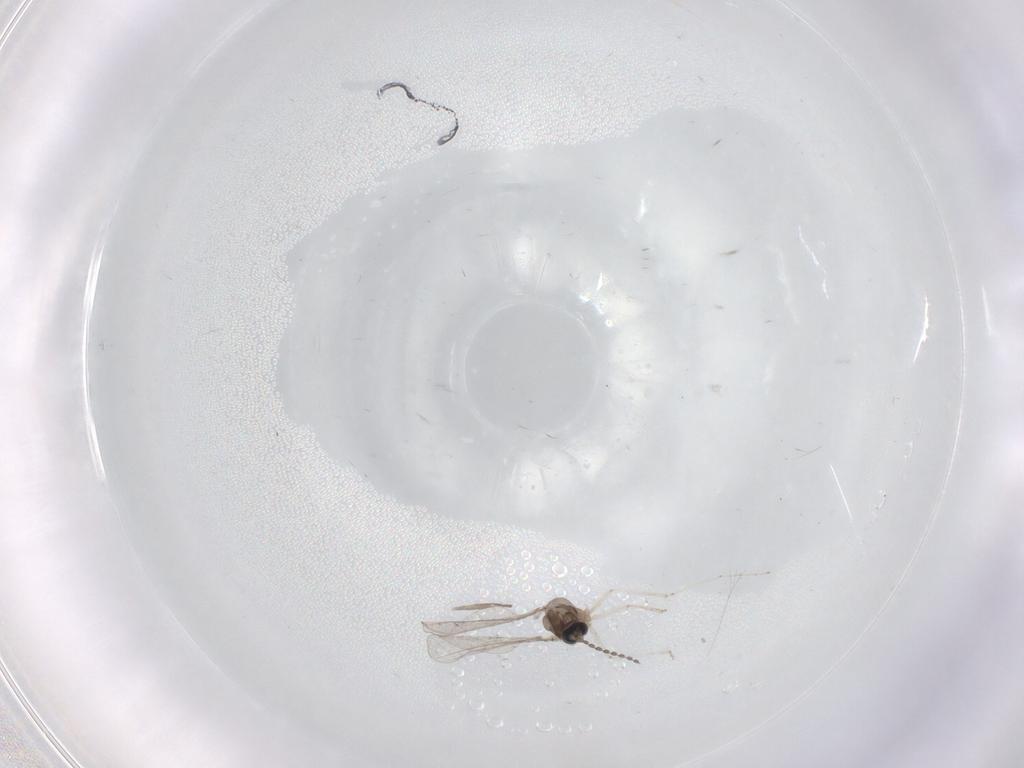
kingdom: Animalia
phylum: Arthropoda
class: Insecta
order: Diptera
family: Chironomidae
